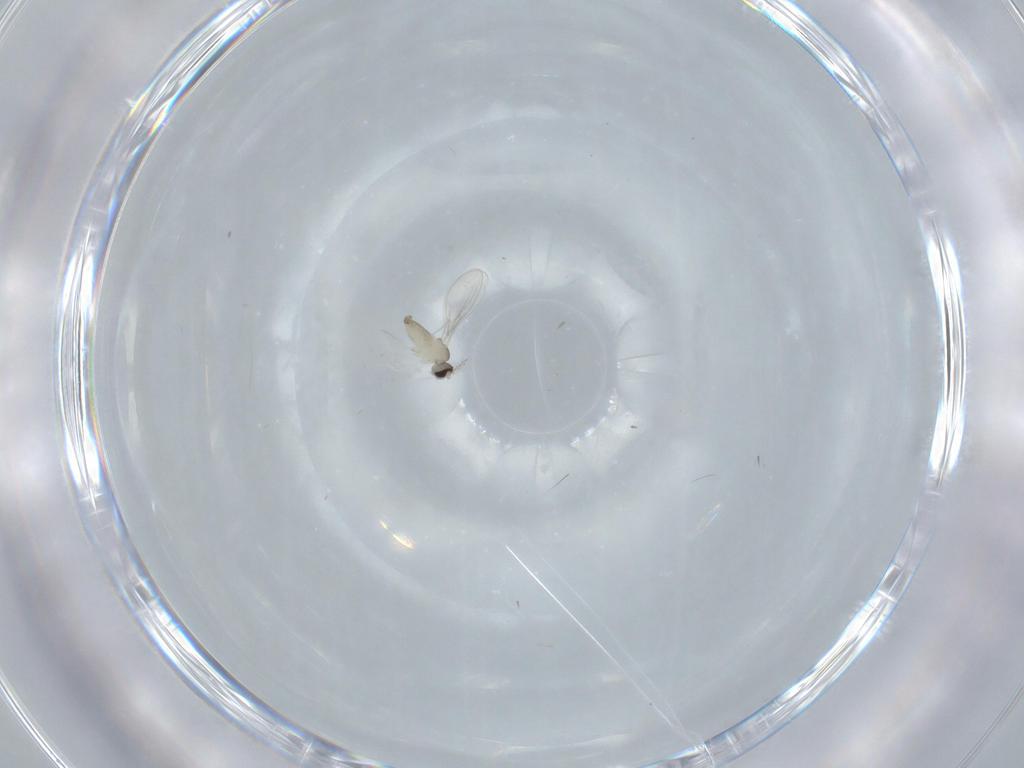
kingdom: Animalia
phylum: Arthropoda
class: Insecta
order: Diptera
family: Cecidomyiidae
